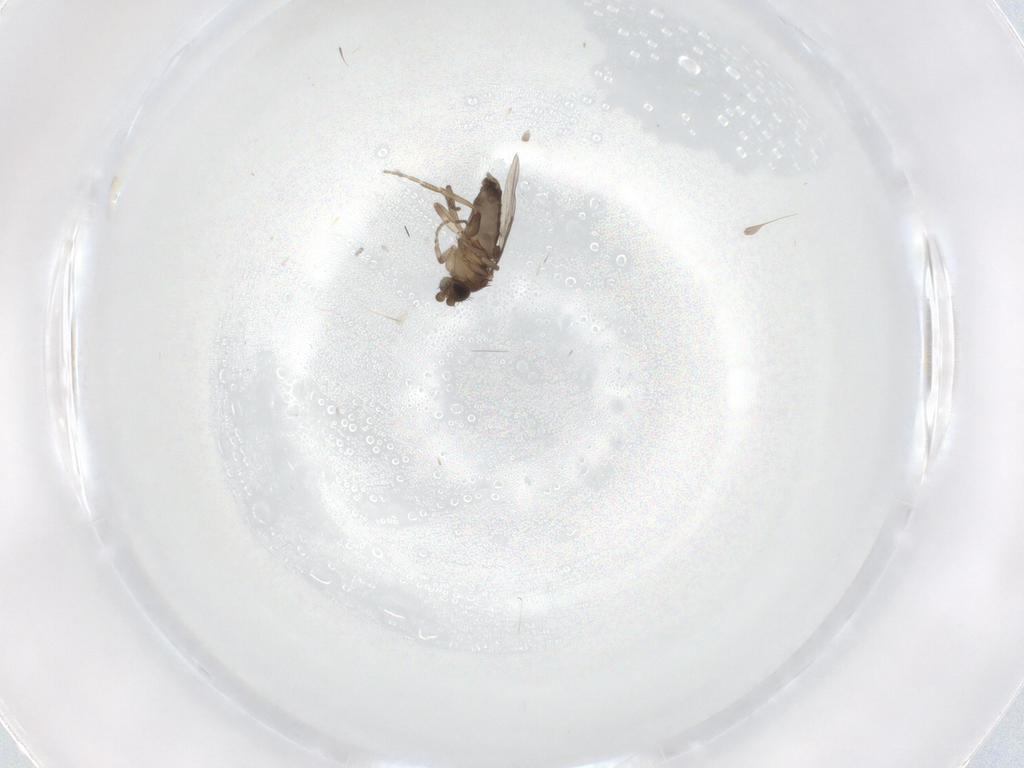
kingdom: Animalia
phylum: Arthropoda
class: Insecta
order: Diptera
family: Phoridae
